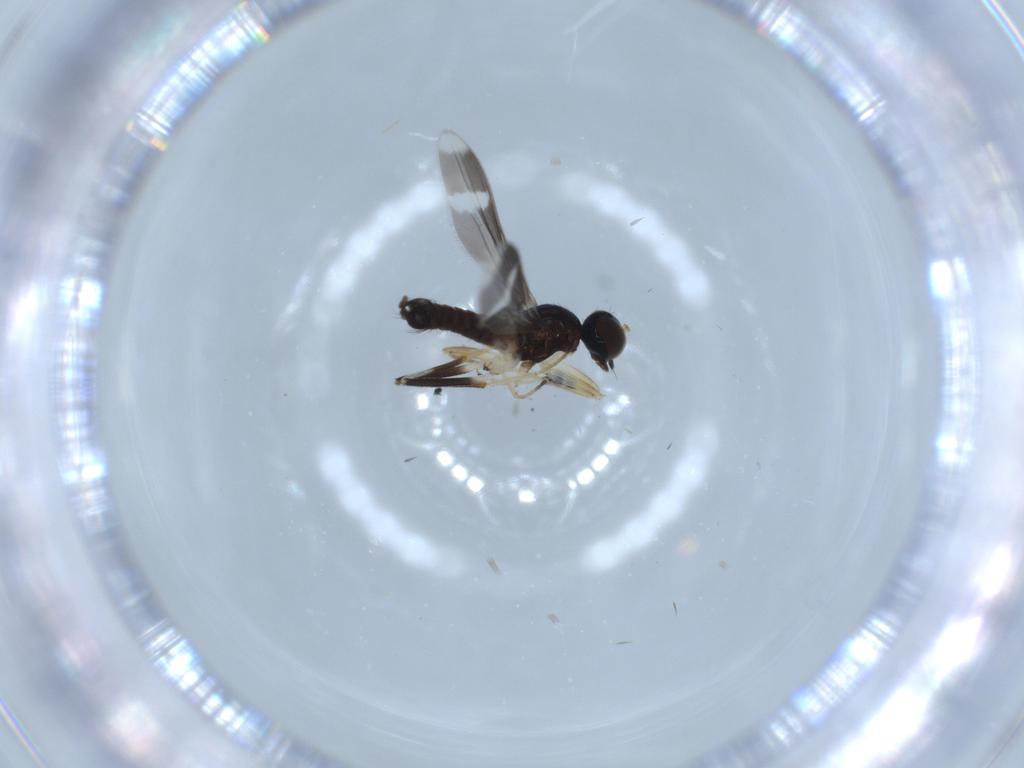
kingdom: Animalia
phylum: Arthropoda
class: Insecta
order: Diptera
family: Hybotidae
